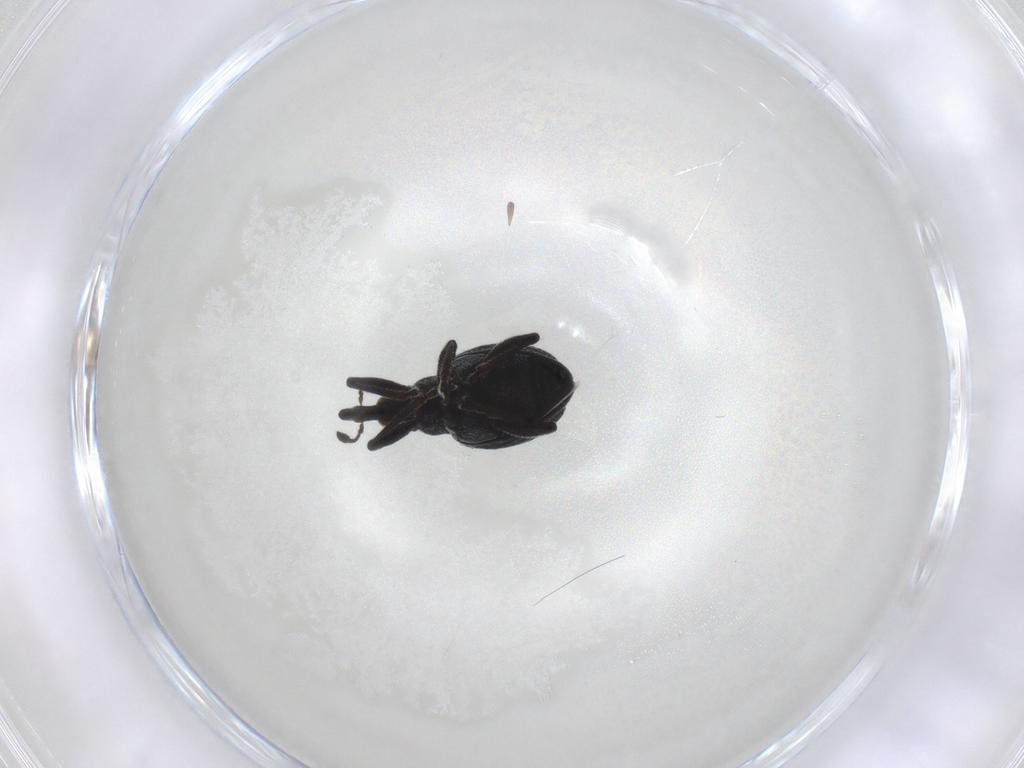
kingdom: Animalia
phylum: Arthropoda
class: Insecta
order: Coleoptera
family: Brentidae
